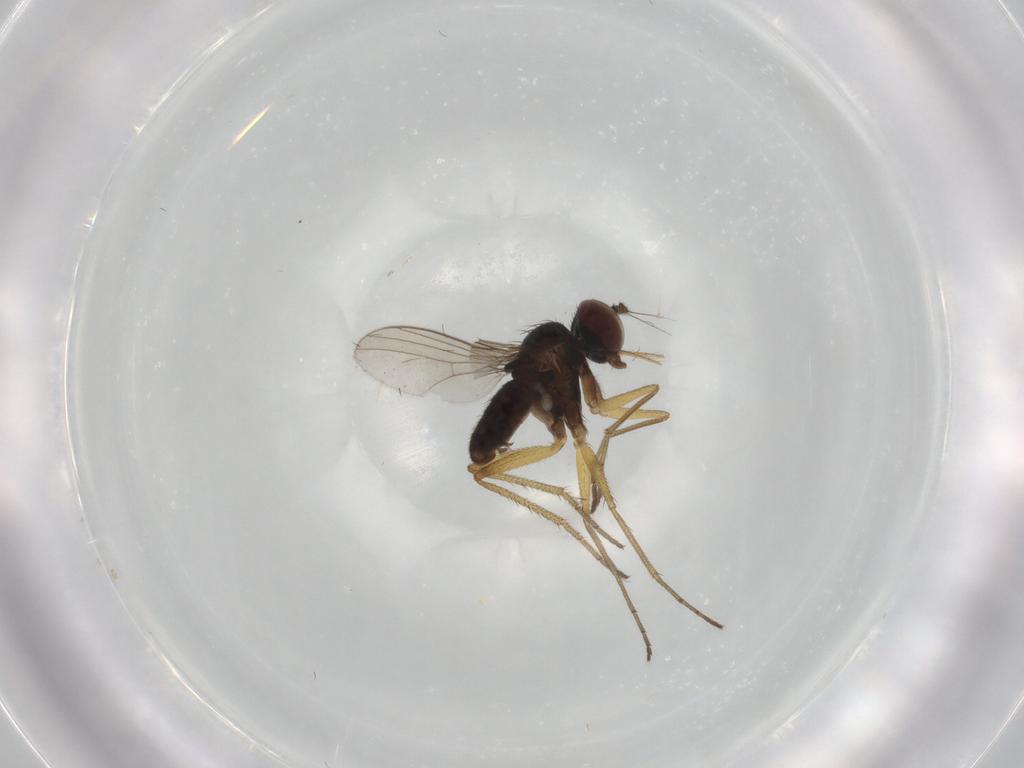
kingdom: Animalia
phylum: Arthropoda
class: Insecta
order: Diptera
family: Dolichopodidae
